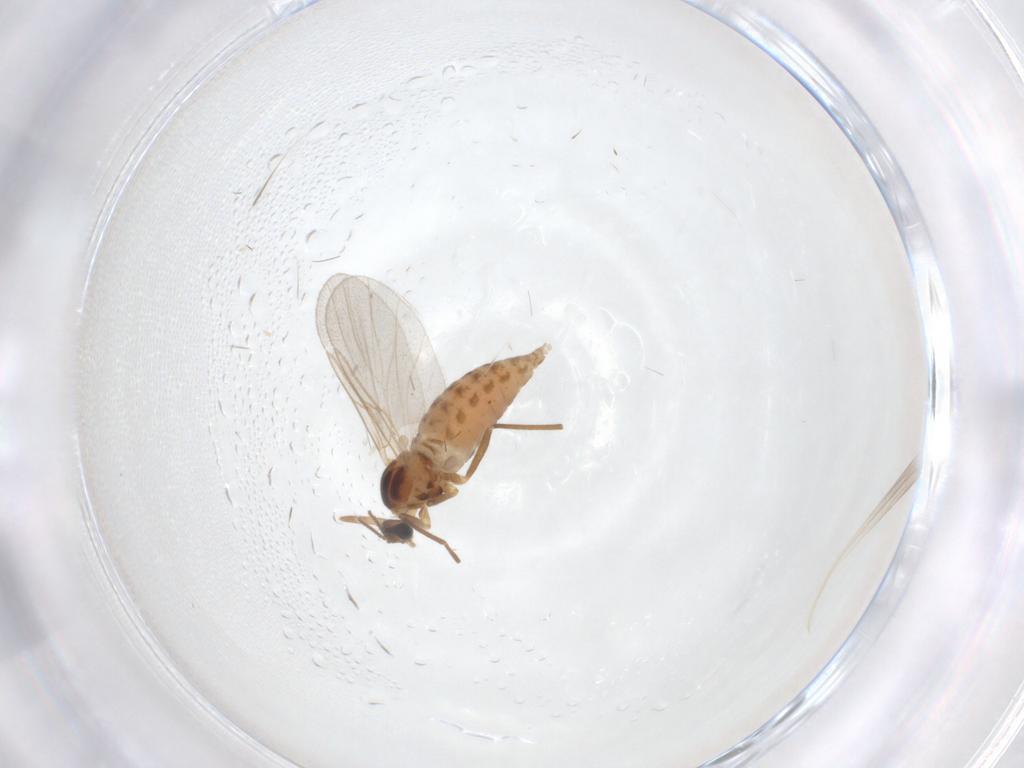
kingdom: Animalia
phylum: Arthropoda
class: Insecta
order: Diptera
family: Cecidomyiidae
